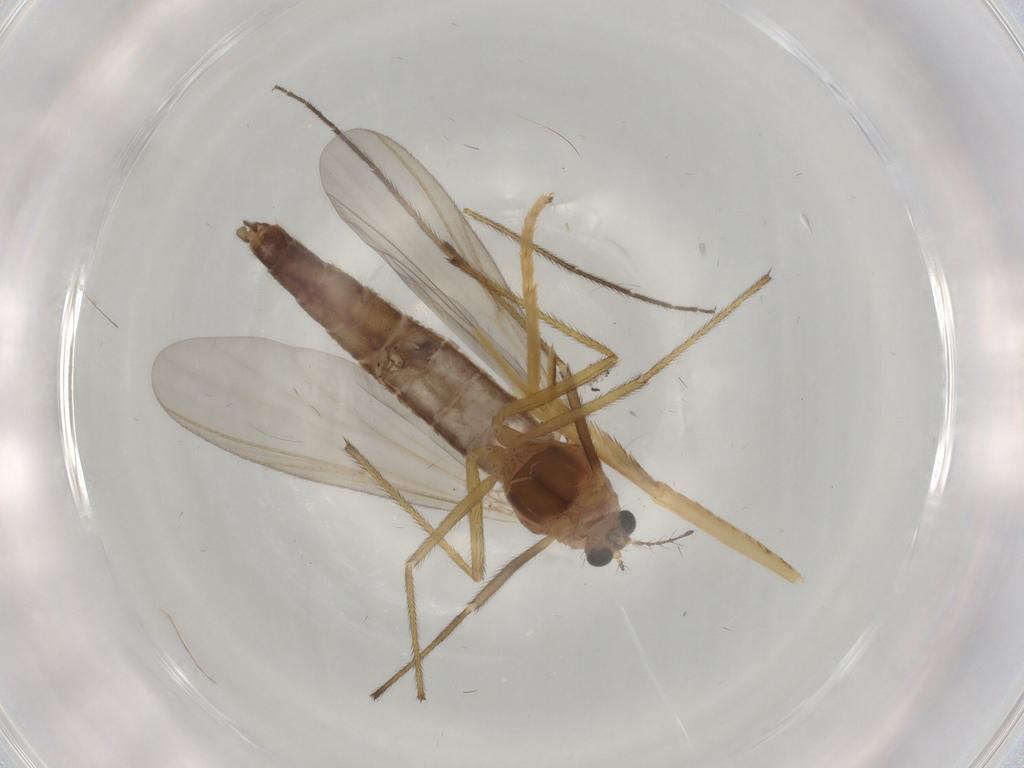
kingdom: Animalia
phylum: Arthropoda
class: Insecta
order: Diptera
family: Chironomidae
